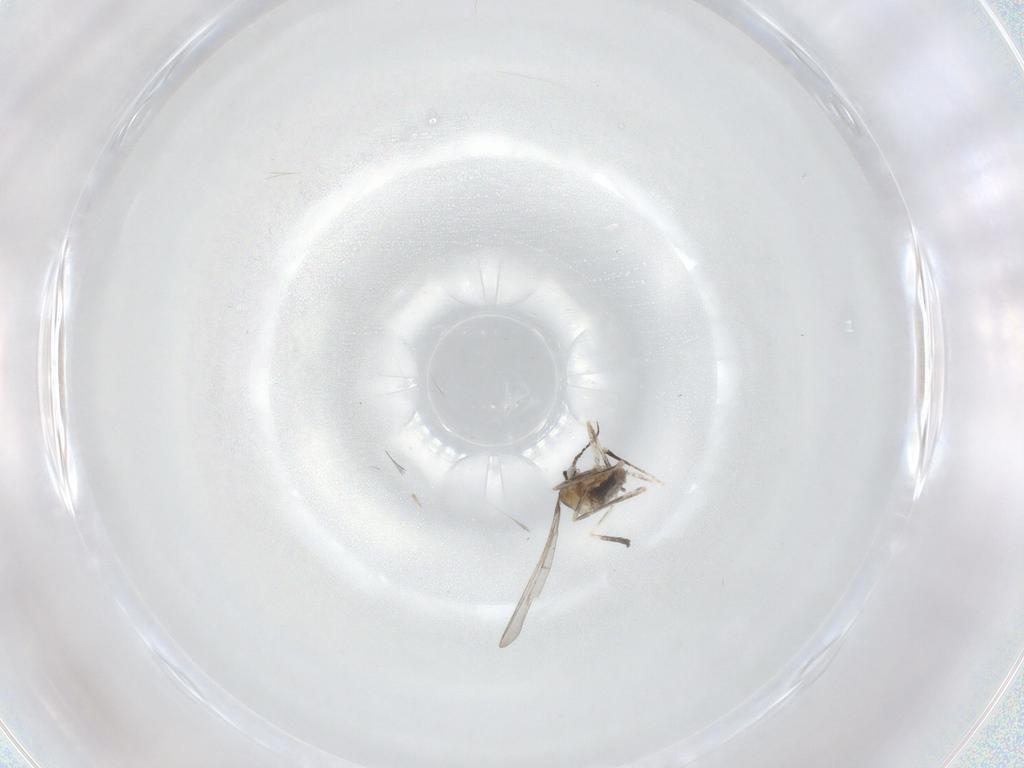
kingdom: Animalia
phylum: Arthropoda
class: Insecta
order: Diptera
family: Cecidomyiidae
